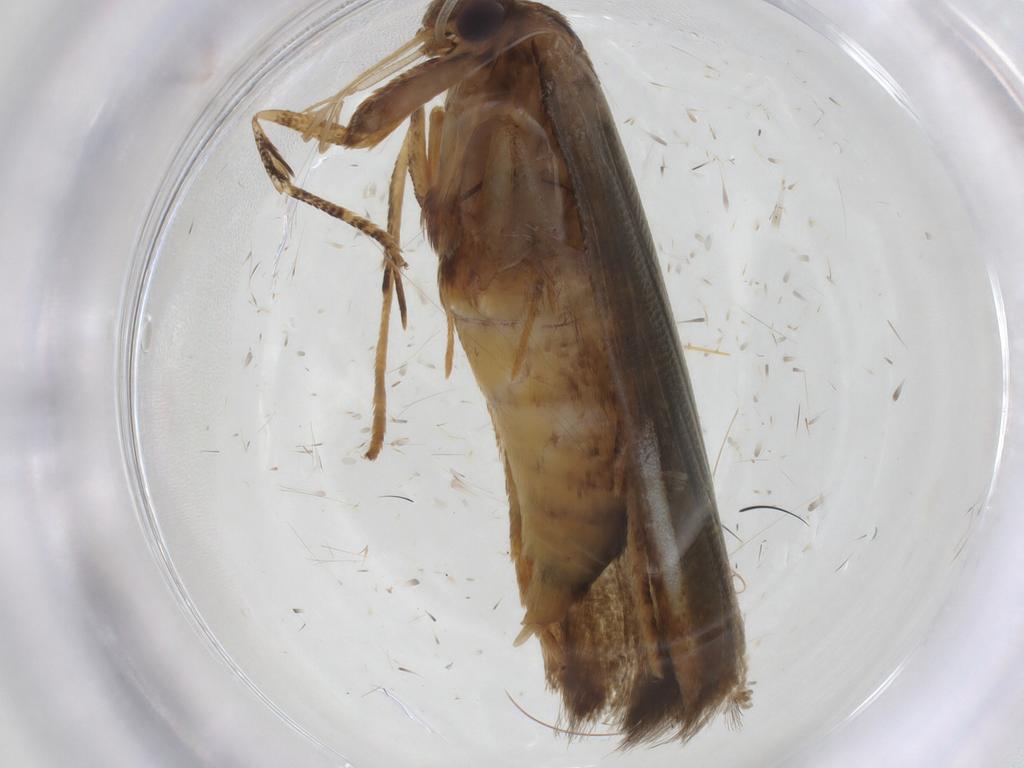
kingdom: Animalia
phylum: Arthropoda
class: Insecta
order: Lepidoptera
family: Blastobasidae
